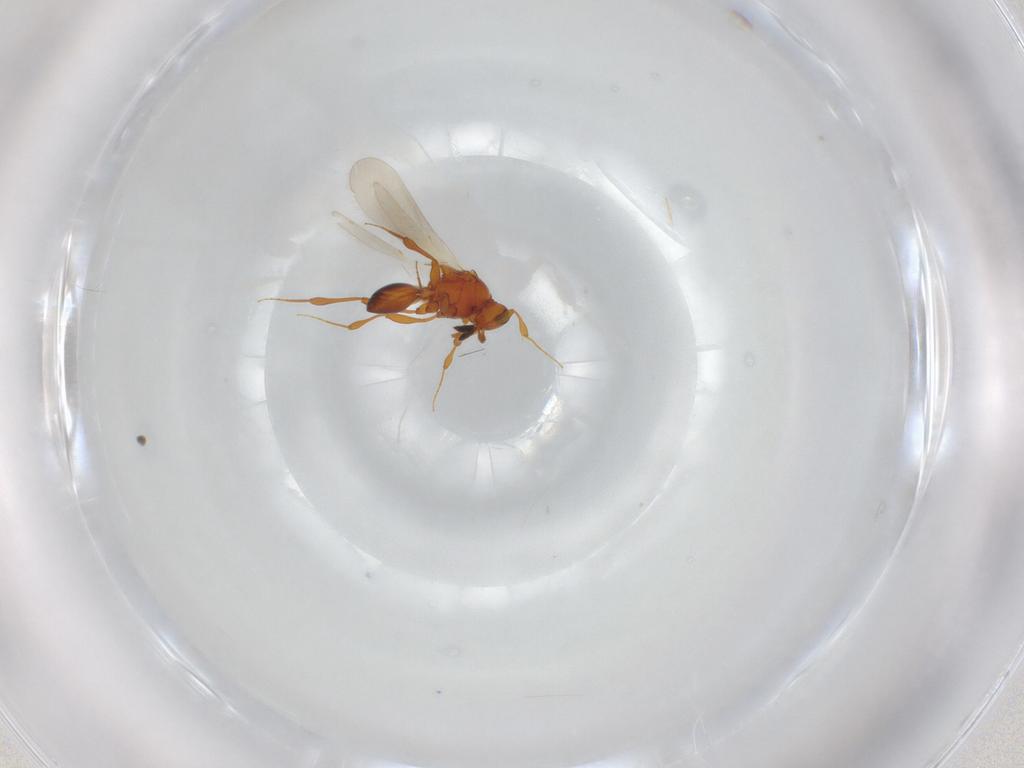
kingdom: Animalia
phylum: Arthropoda
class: Insecta
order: Hymenoptera
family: Platygastridae
